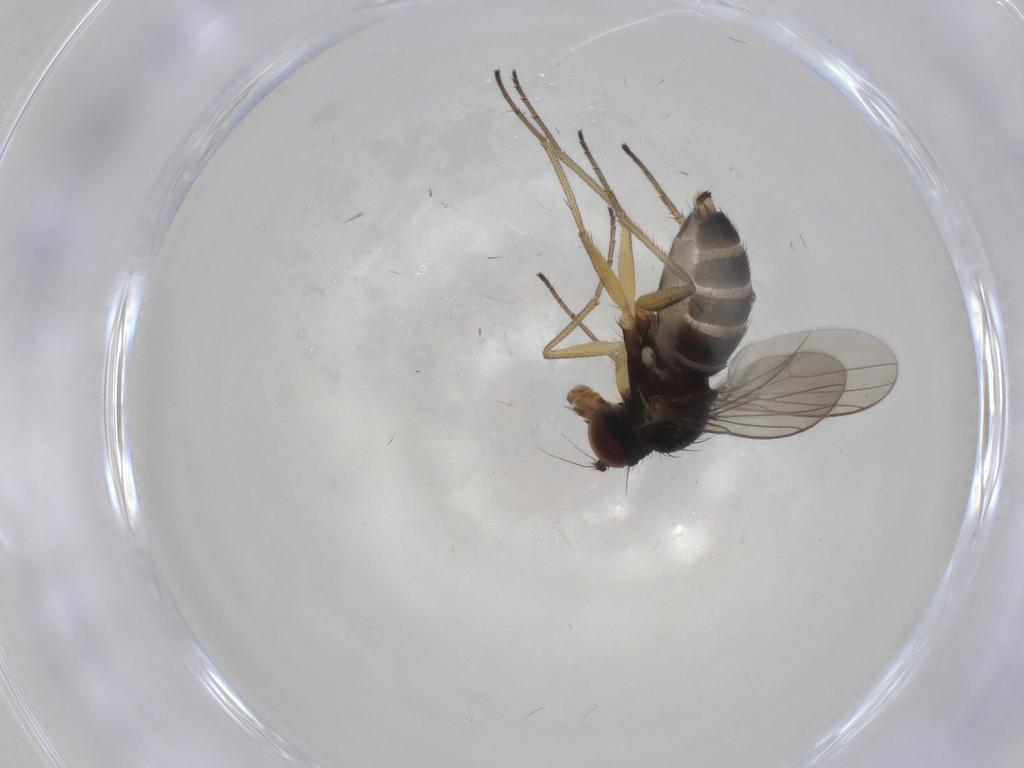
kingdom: Animalia
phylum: Arthropoda
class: Insecta
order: Diptera
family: Dolichopodidae
